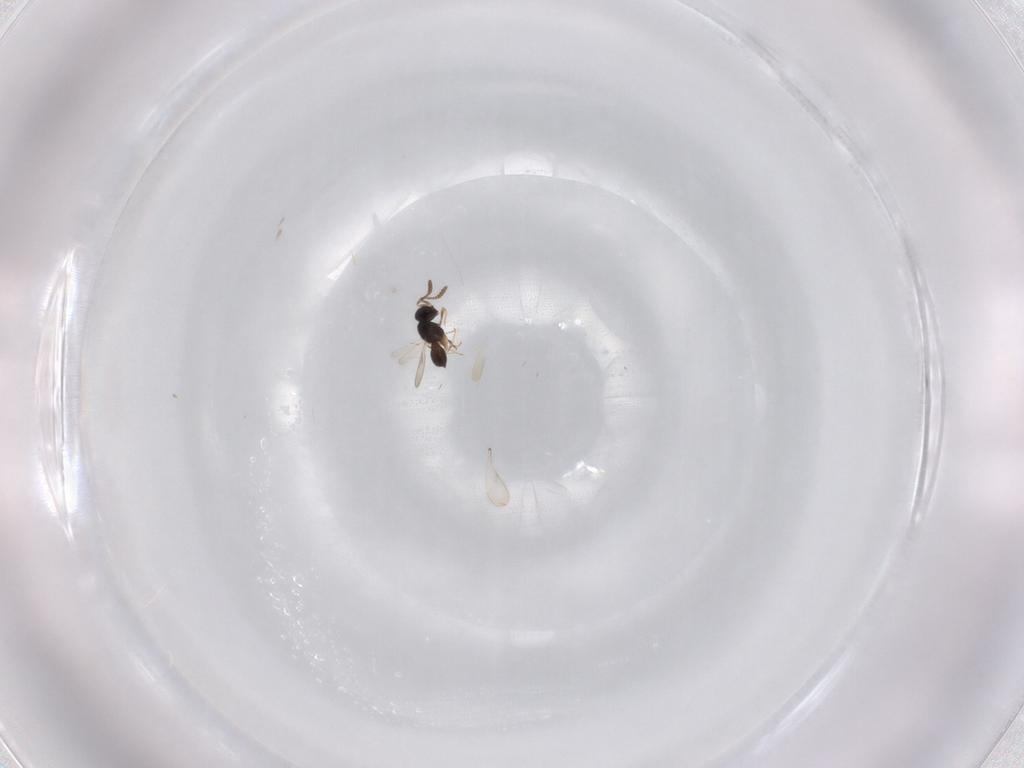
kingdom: Animalia
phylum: Arthropoda
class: Insecta
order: Hymenoptera
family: Scelionidae
